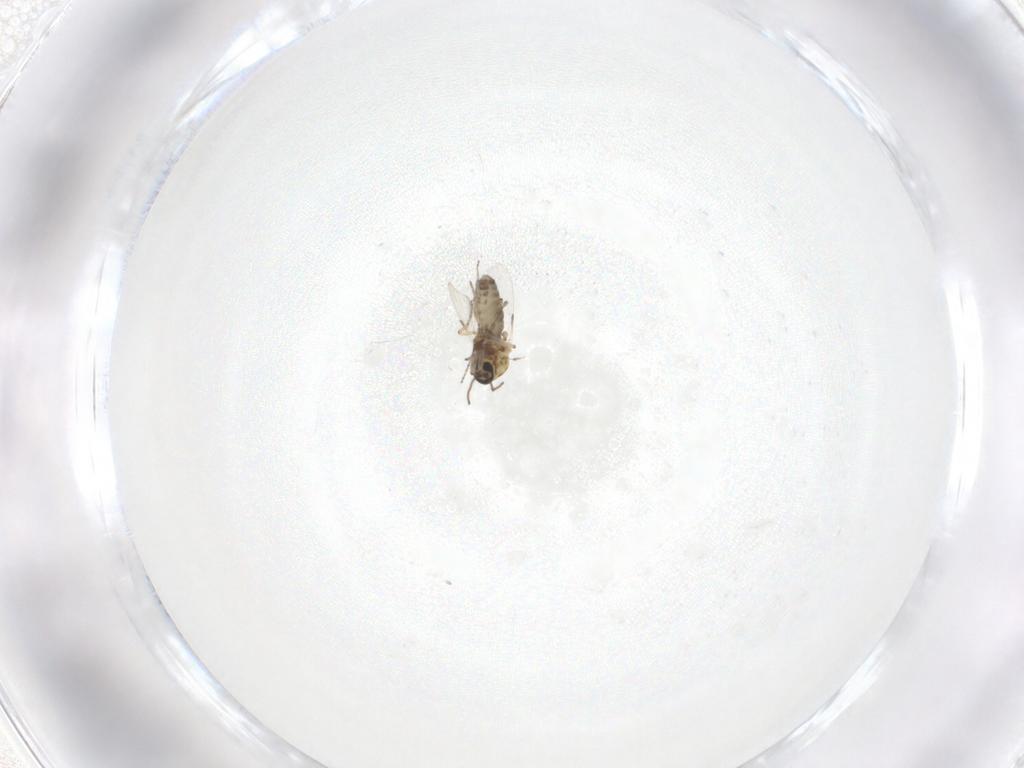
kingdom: Animalia
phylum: Arthropoda
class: Insecta
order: Diptera
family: Cecidomyiidae
